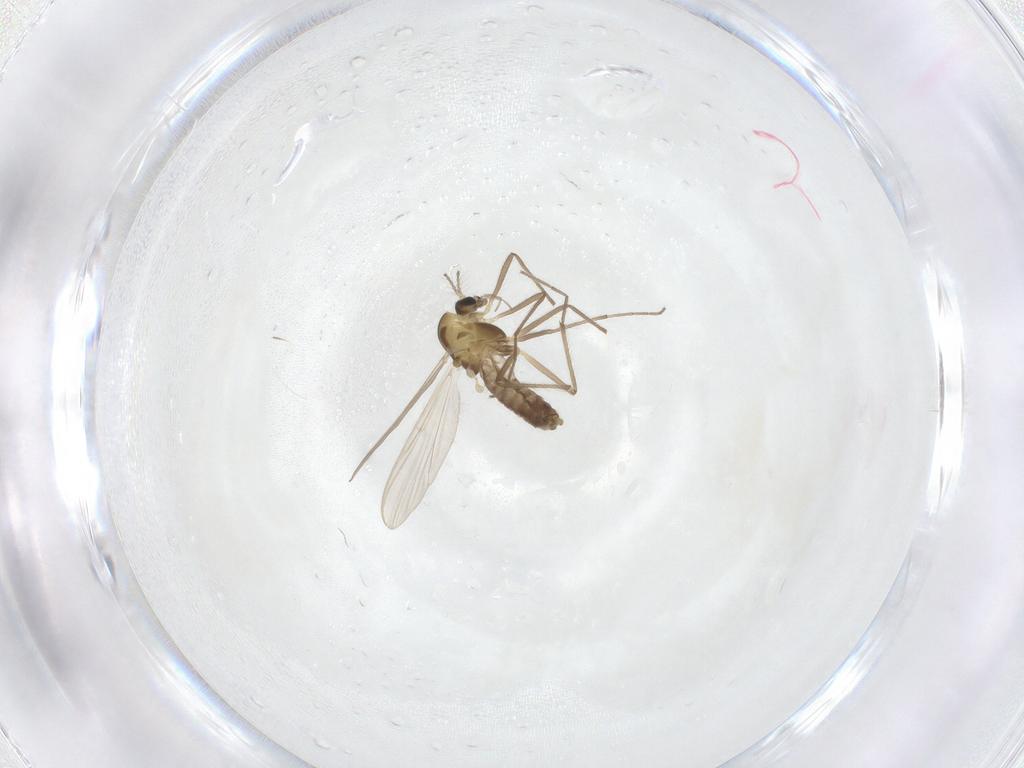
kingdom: Animalia
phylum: Arthropoda
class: Insecta
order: Diptera
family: Chironomidae
